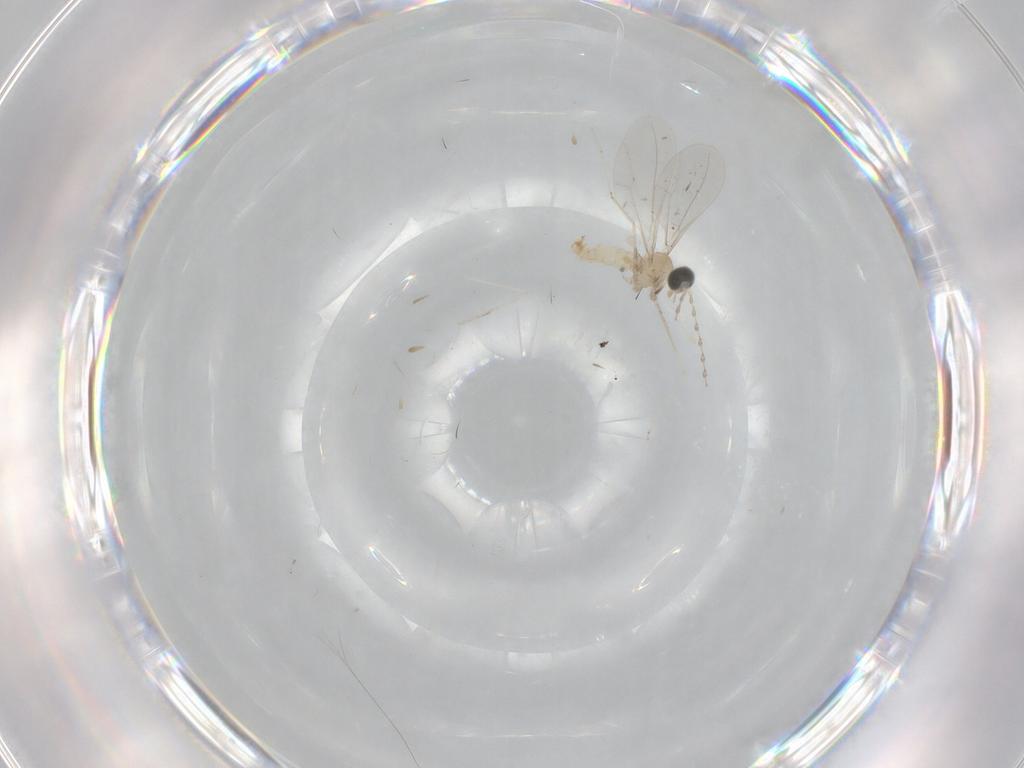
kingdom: Animalia
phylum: Arthropoda
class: Insecta
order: Diptera
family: Cecidomyiidae
